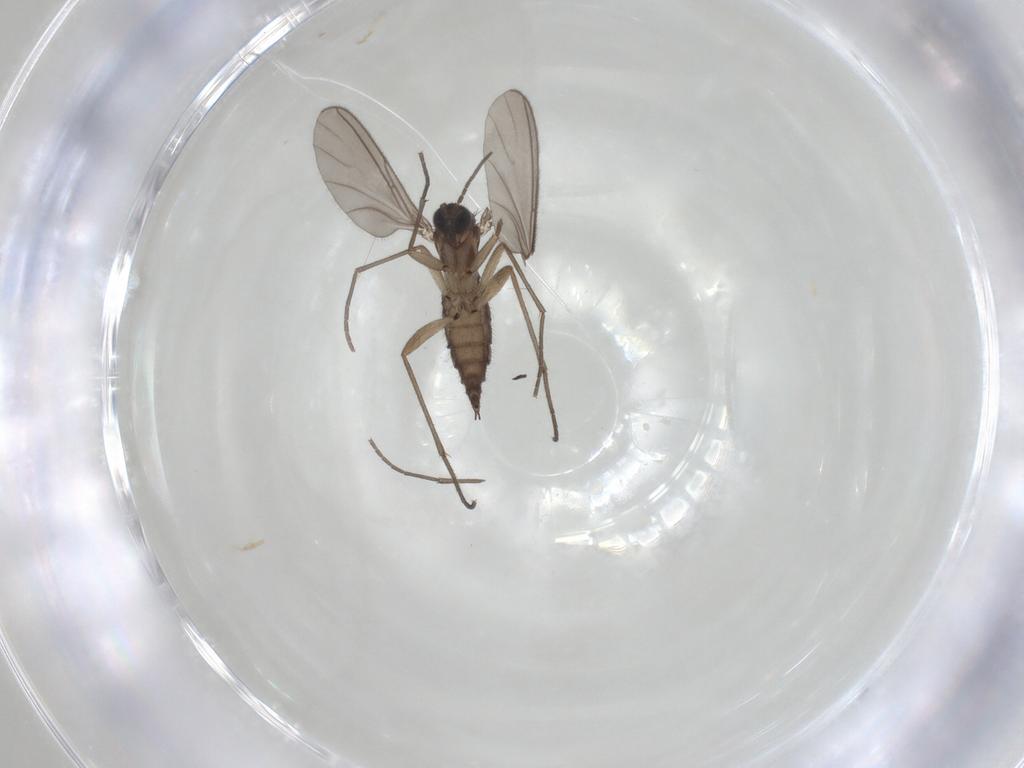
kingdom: Animalia
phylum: Arthropoda
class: Insecta
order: Diptera
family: Sciaridae
